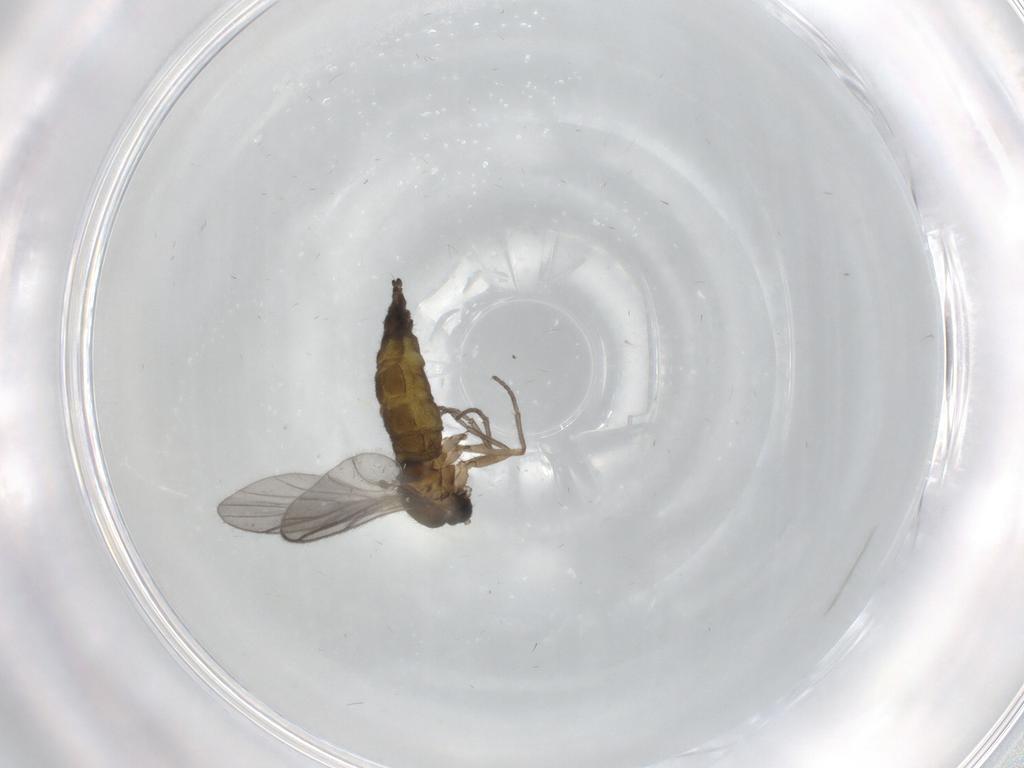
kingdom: Animalia
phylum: Arthropoda
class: Insecta
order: Diptera
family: Sciaridae
